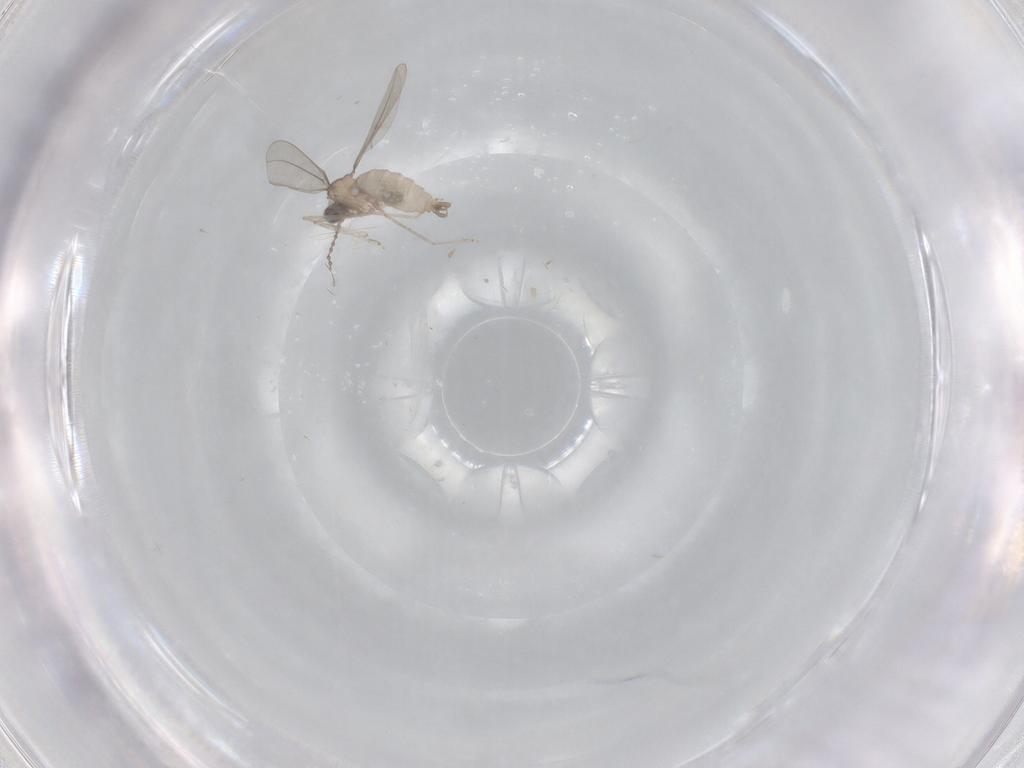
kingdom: Animalia
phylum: Arthropoda
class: Insecta
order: Diptera
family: Cecidomyiidae
